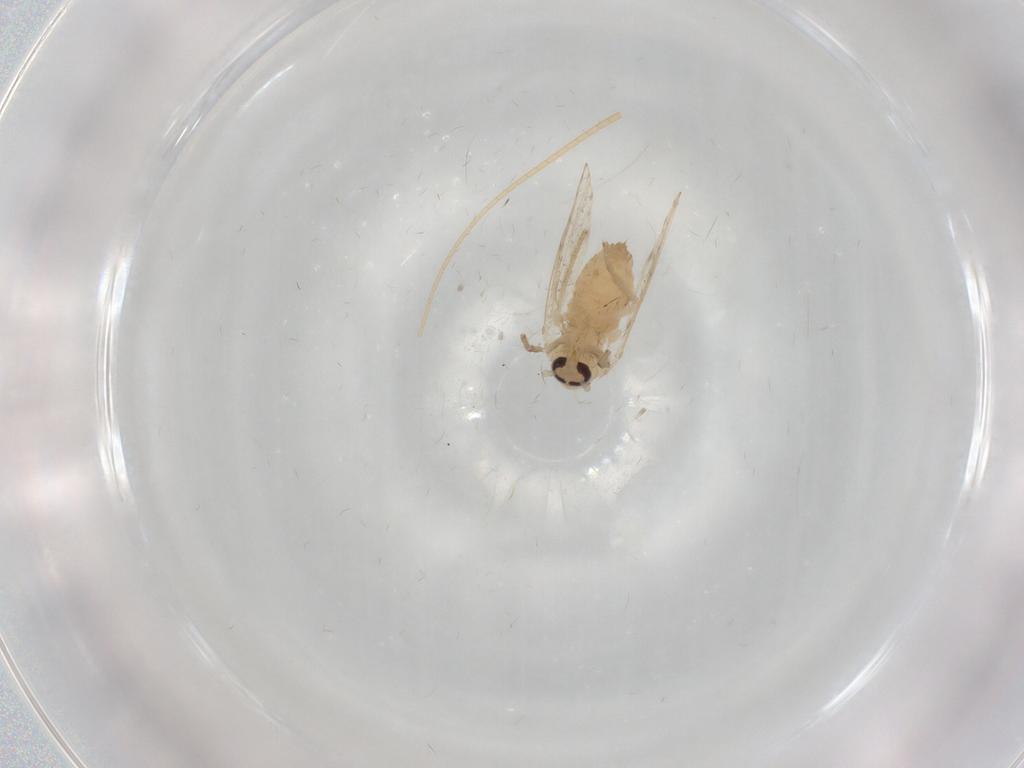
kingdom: Animalia
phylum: Arthropoda
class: Insecta
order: Diptera
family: Psychodidae
